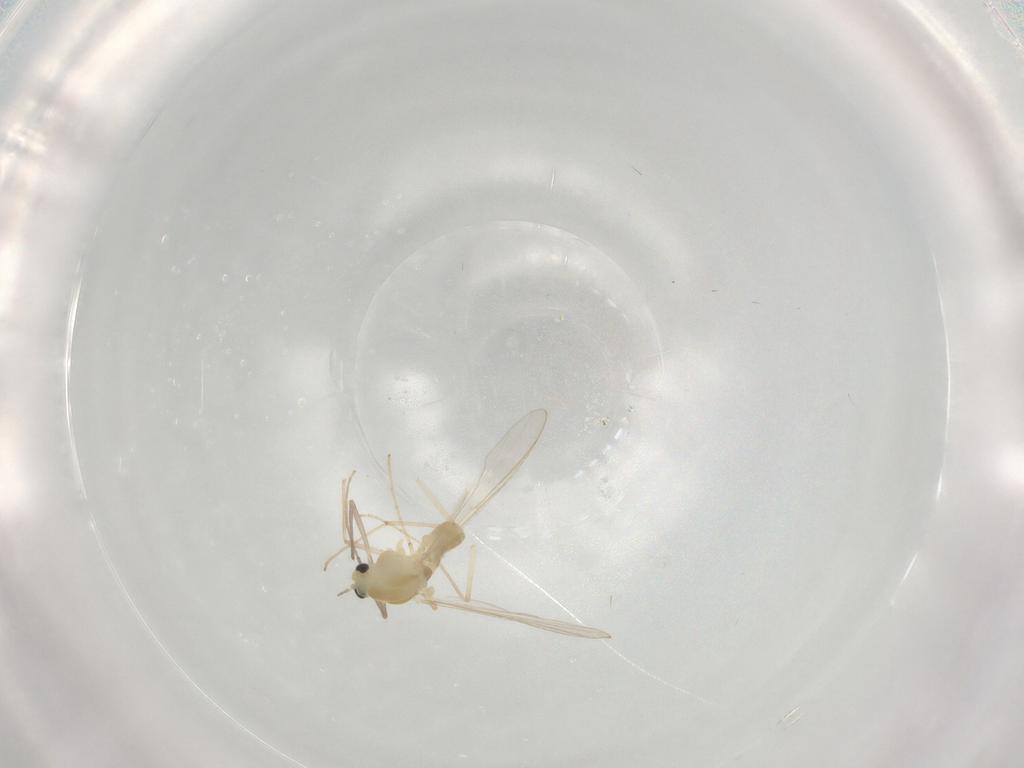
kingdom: Animalia
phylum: Arthropoda
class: Insecta
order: Diptera
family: Chironomidae
